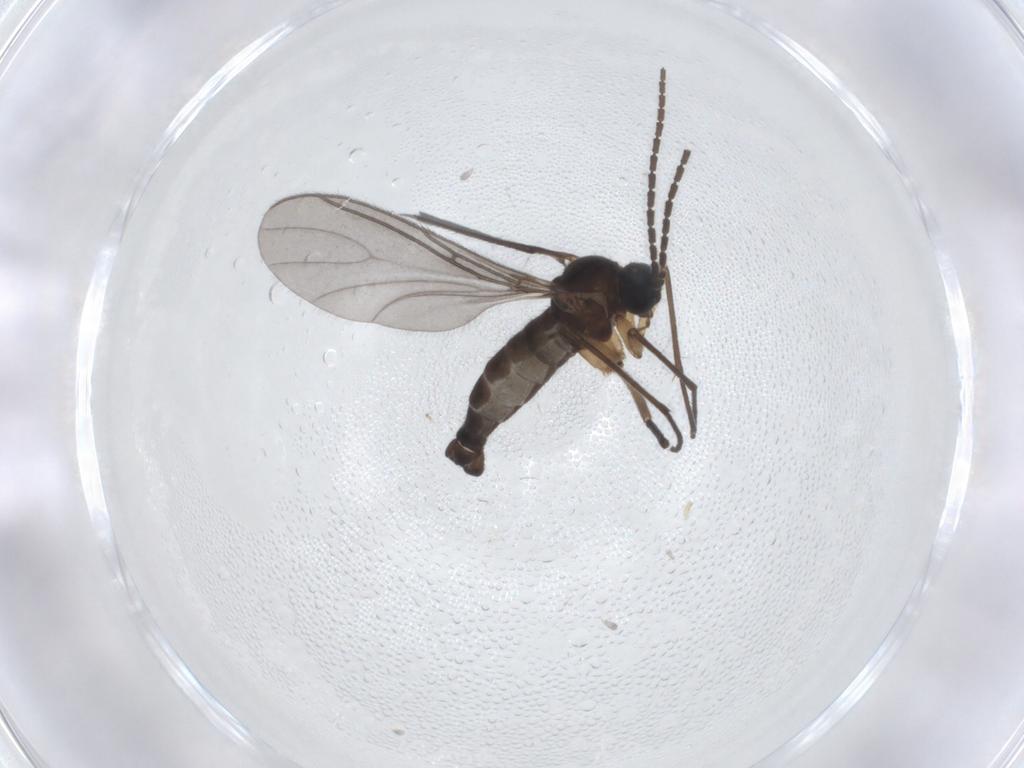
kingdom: Animalia
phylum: Arthropoda
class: Insecta
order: Diptera
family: Sciaridae
